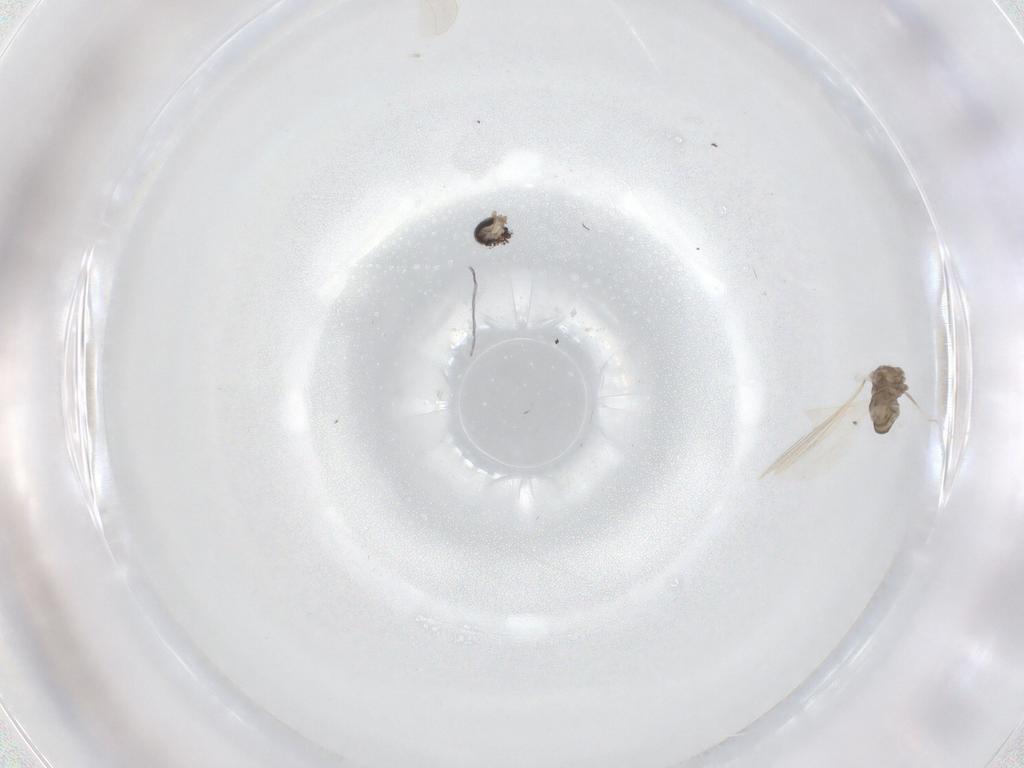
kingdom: Animalia
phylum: Arthropoda
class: Insecta
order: Diptera
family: Cecidomyiidae
